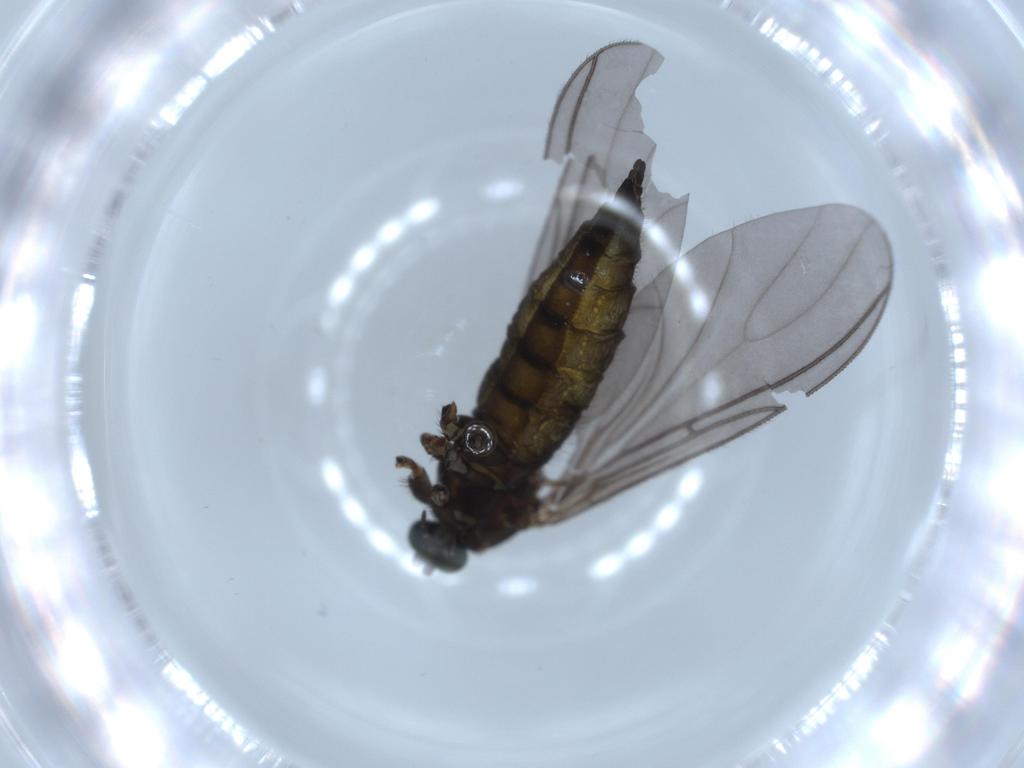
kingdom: Animalia
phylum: Arthropoda
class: Insecta
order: Diptera
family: Sciaridae
